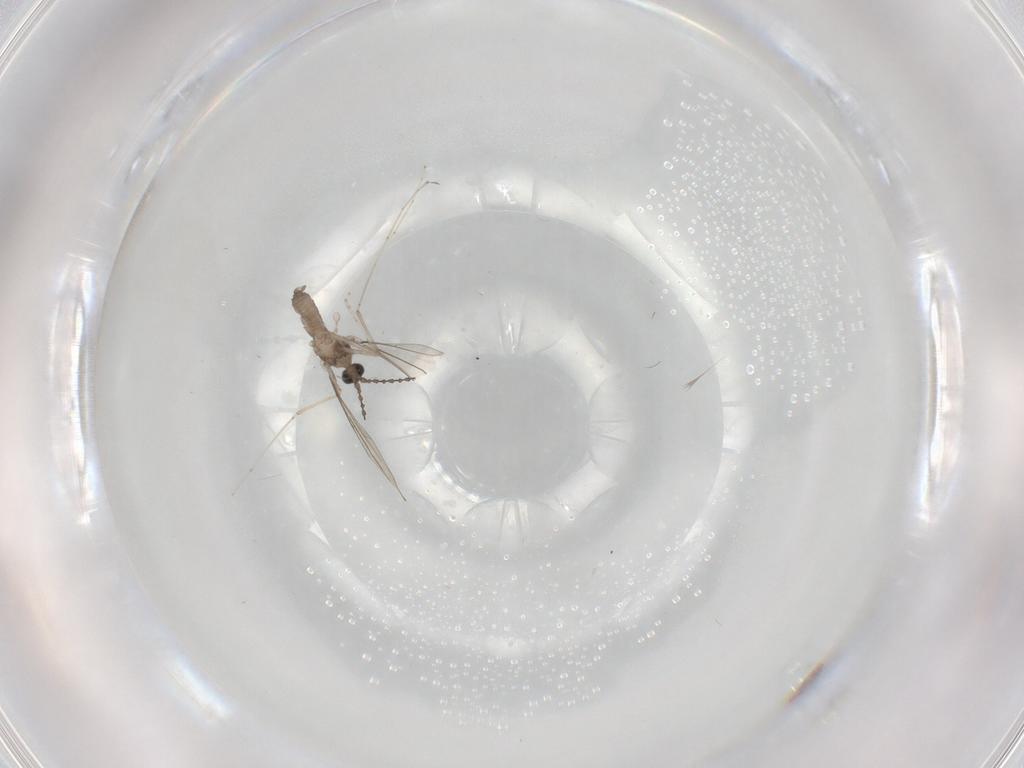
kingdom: Animalia
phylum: Arthropoda
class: Insecta
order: Diptera
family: Cecidomyiidae
